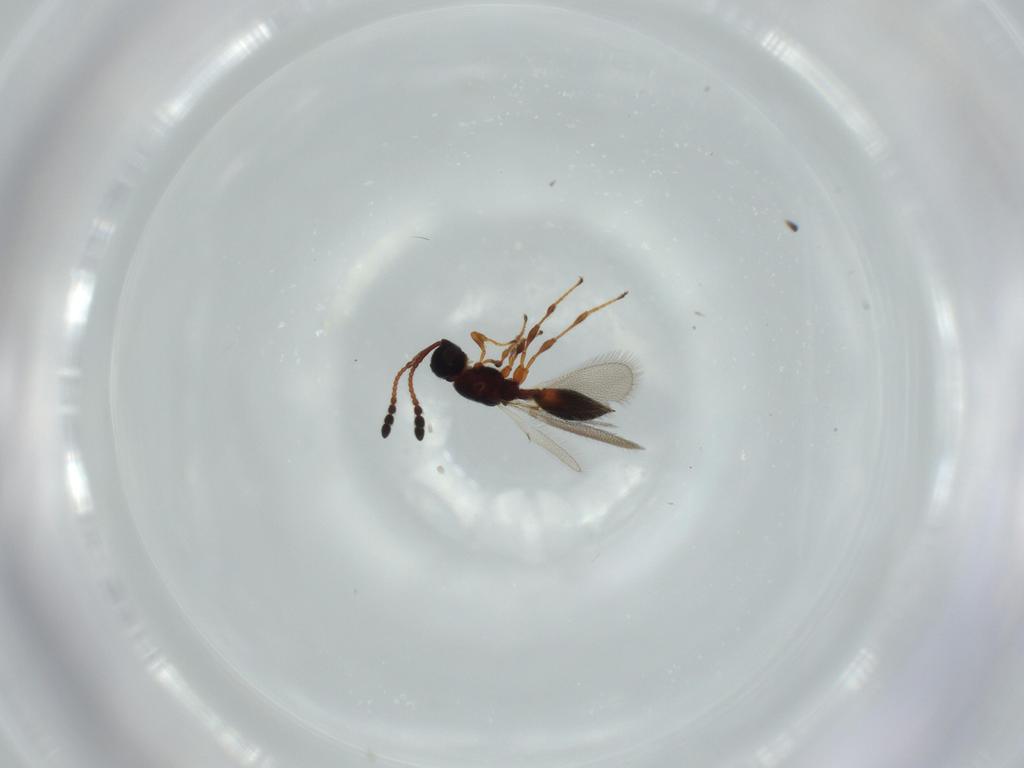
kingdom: Animalia
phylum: Arthropoda
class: Insecta
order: Hymenoptera
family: Diapriidae
